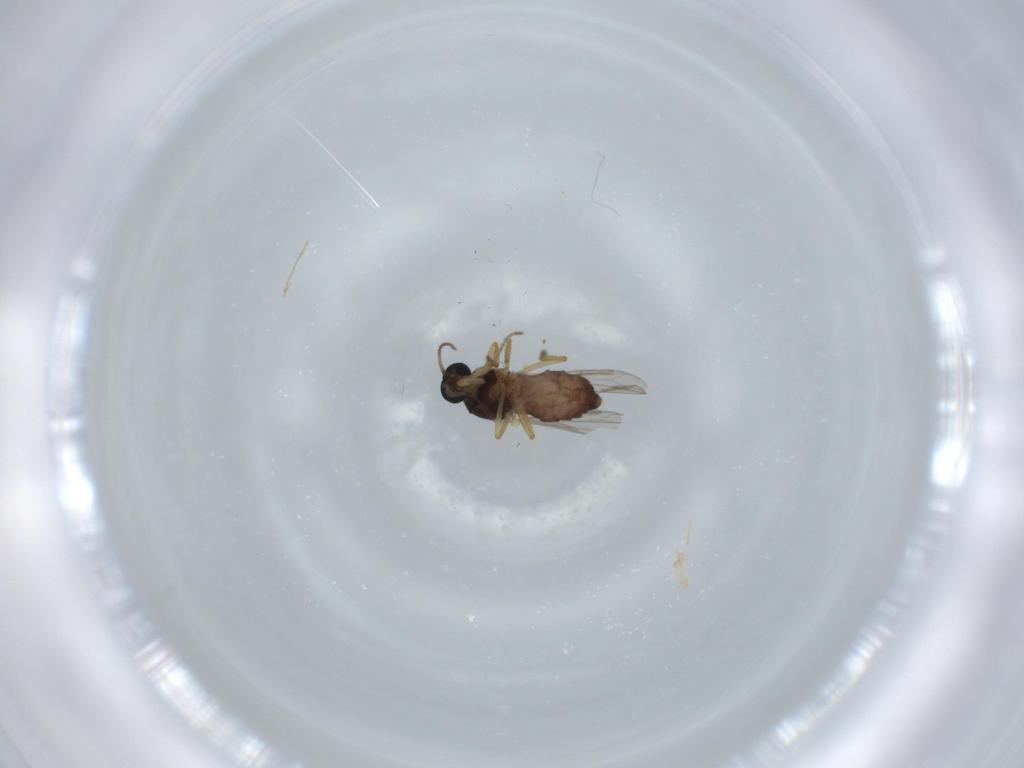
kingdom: Animalia
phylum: Arthropoda
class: Insecta
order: Diptera
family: Ceratopogonidae
